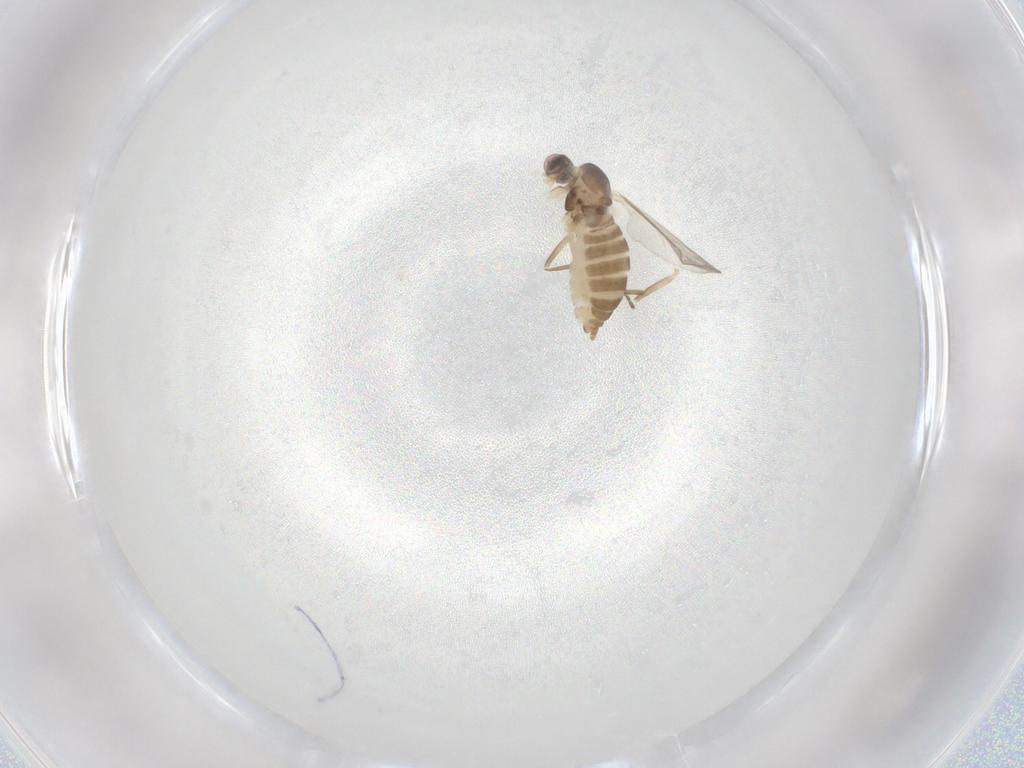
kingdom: Animalia
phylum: Arthropoda
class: Insecta
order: Diptera
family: Cecidomyiidae
